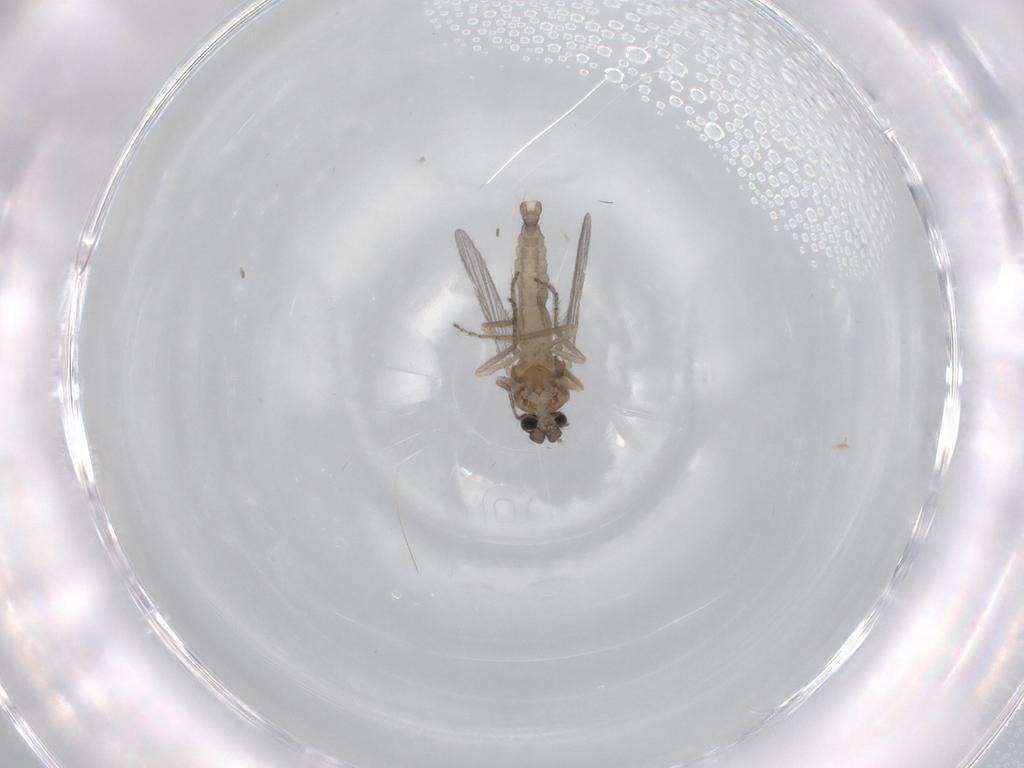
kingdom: Animalia
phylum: Arthropoda
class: Insecta
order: Diptera
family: Ceratopogonidae
